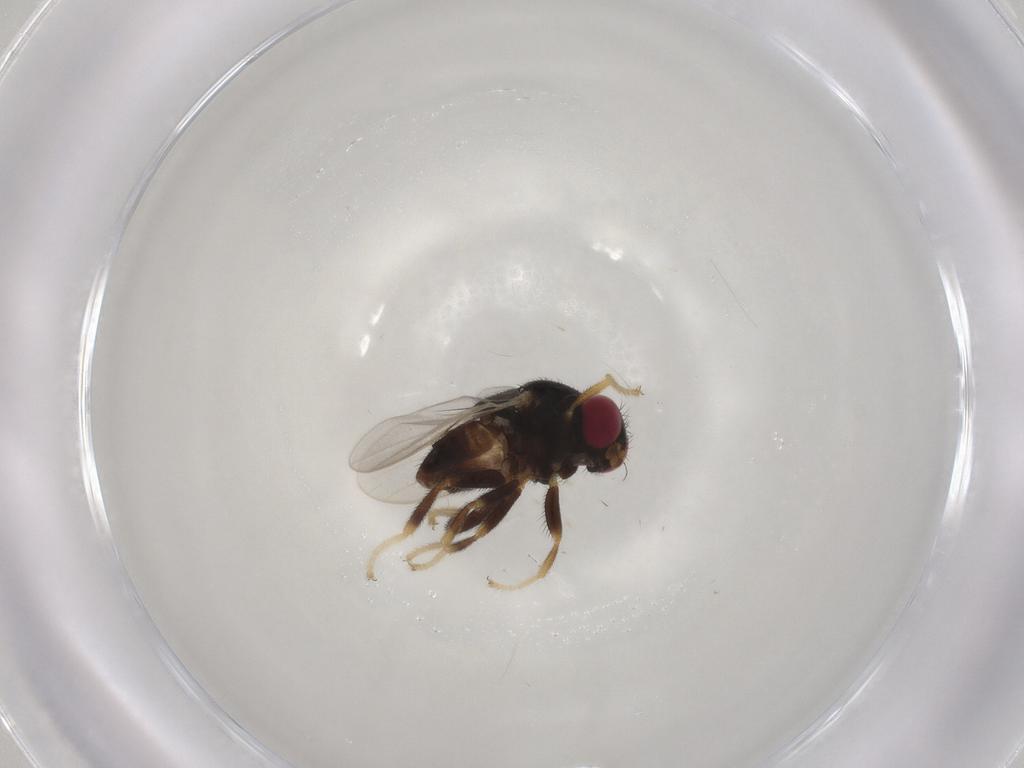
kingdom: Animalia
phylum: Arthropoda
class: Insecta
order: Diptera
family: Chloropidae
